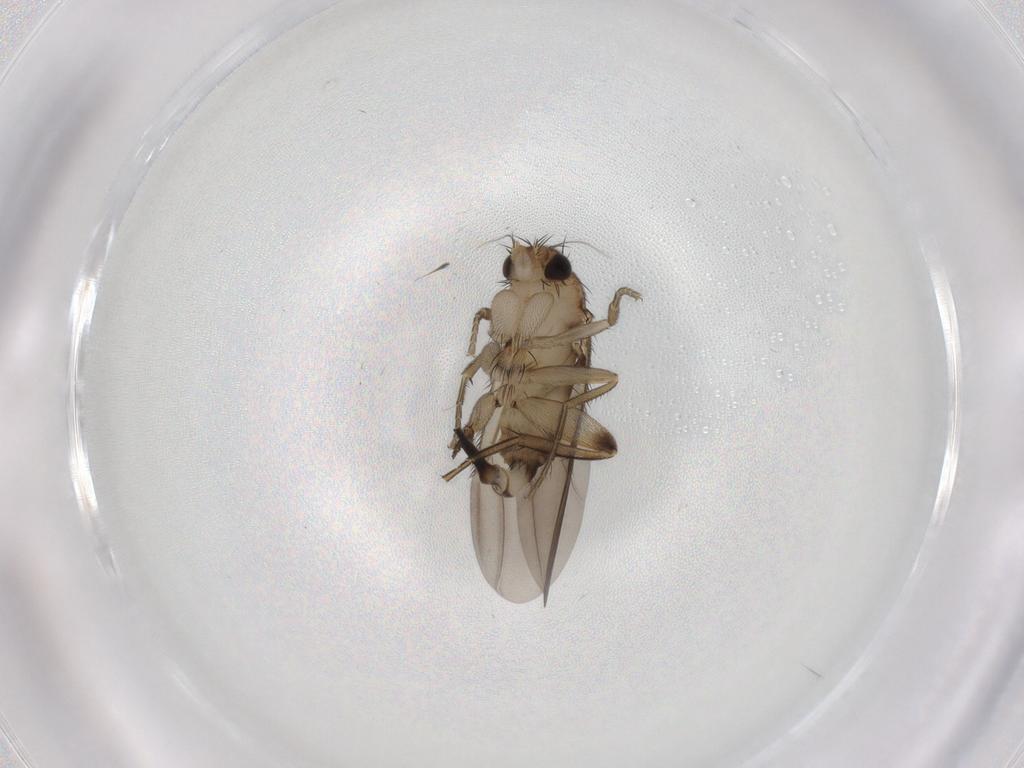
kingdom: Animalia
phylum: Arthropoda
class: Insecta
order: Diptera
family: Phoridae
